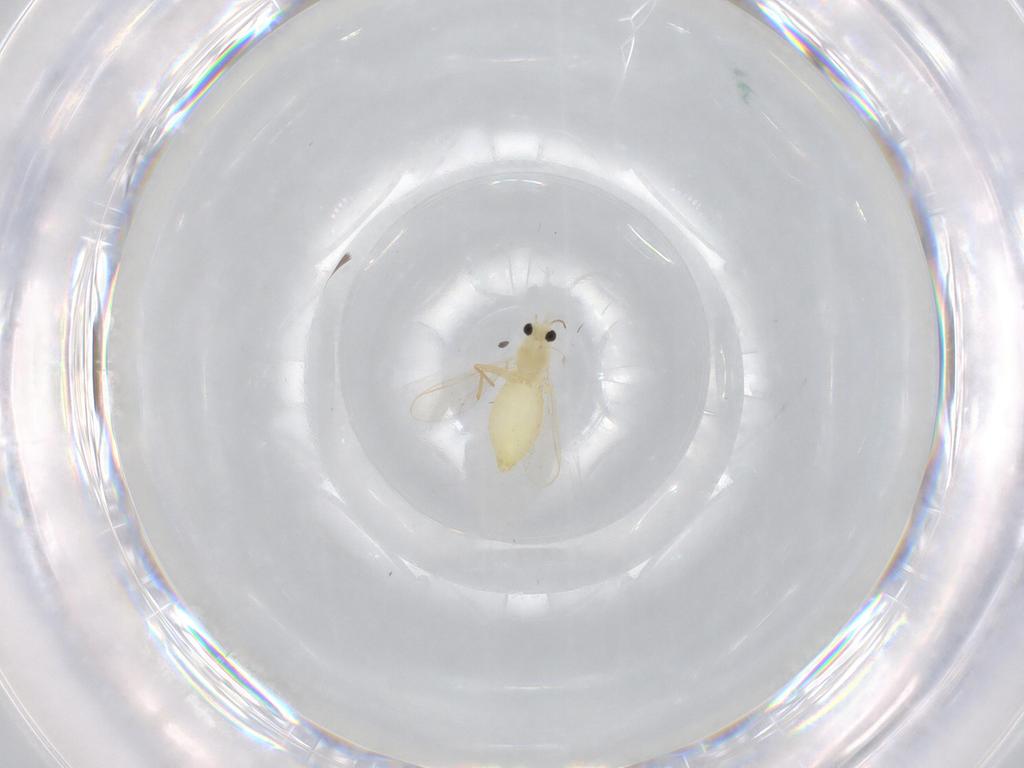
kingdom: Animalia
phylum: Arthropoda
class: Insecta
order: Diptera
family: Chironomidae
